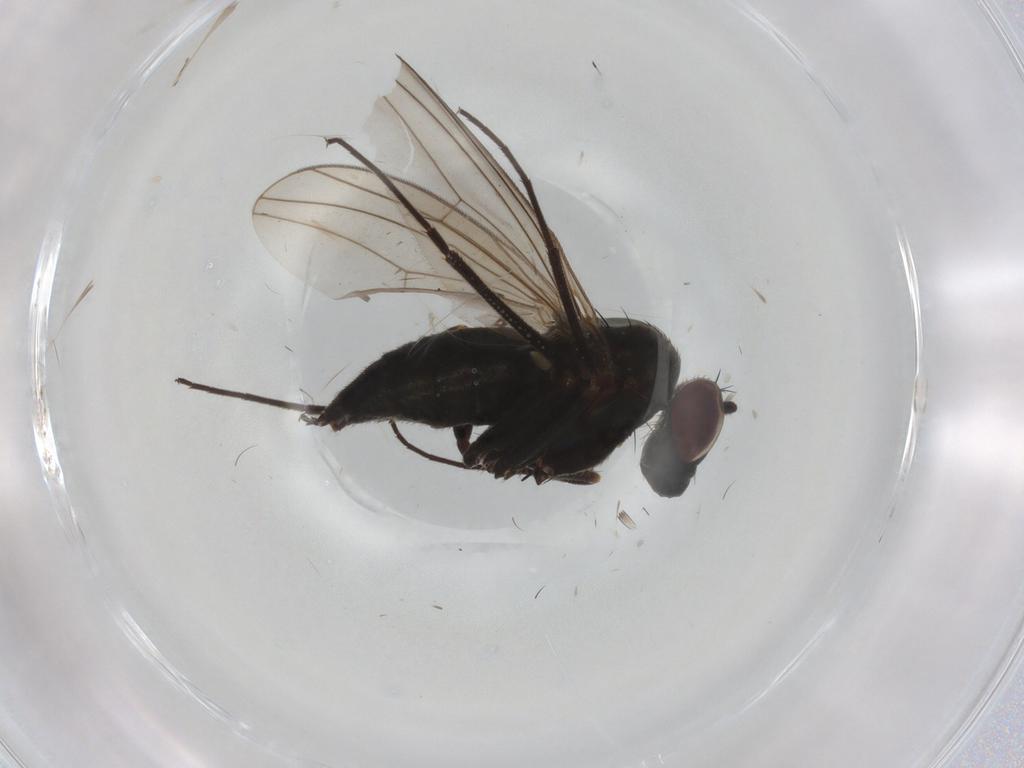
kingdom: Animalia
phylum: Arthropoda
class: Insecta
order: Diptera
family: Dolichopodidae
